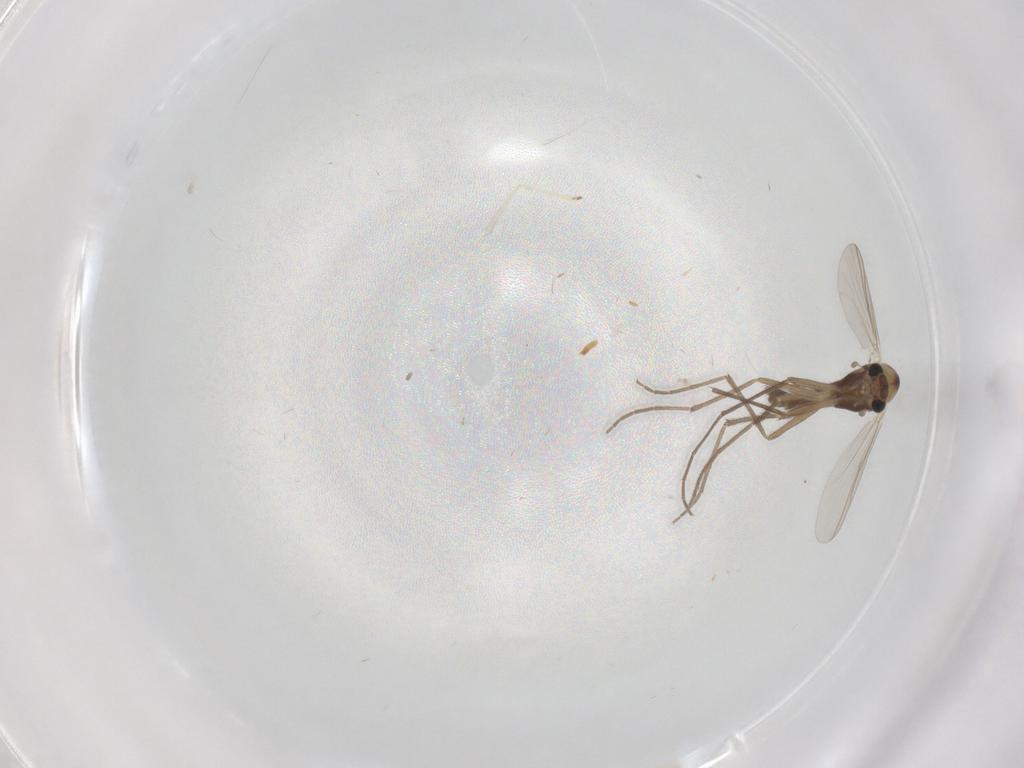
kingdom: Animalia
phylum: Arthropoda
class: Insecta
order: Diptera
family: Chironomidae
